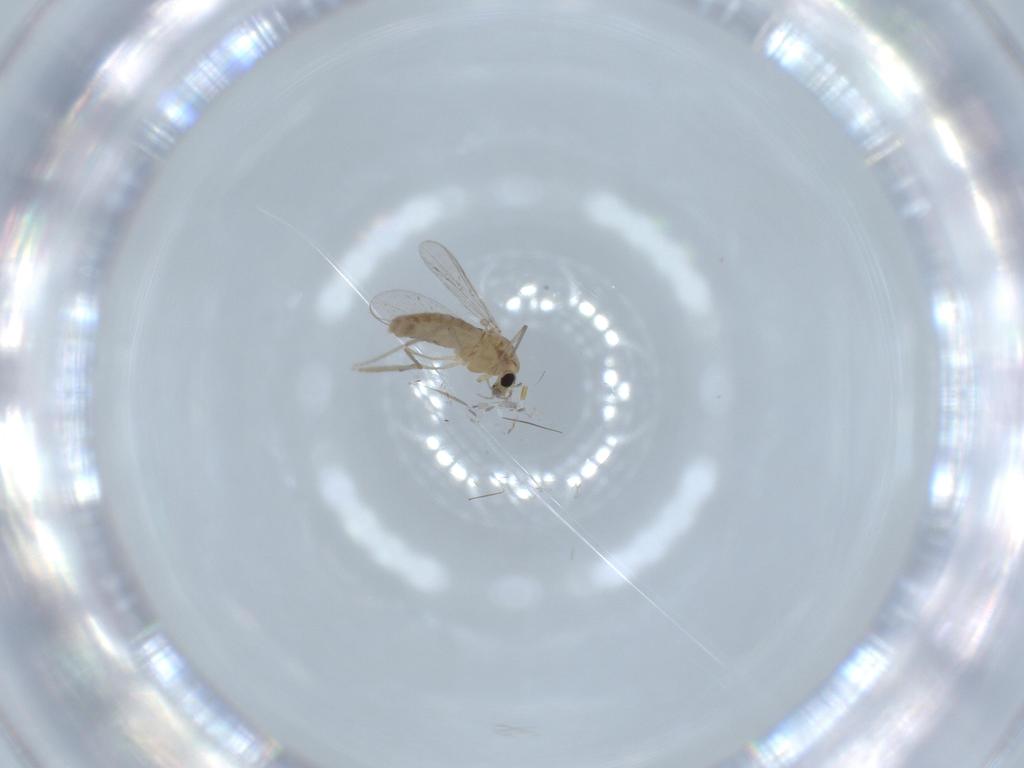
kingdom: Animalia
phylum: Arthropoda
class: Insecta
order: Diptera
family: Chironomidae
